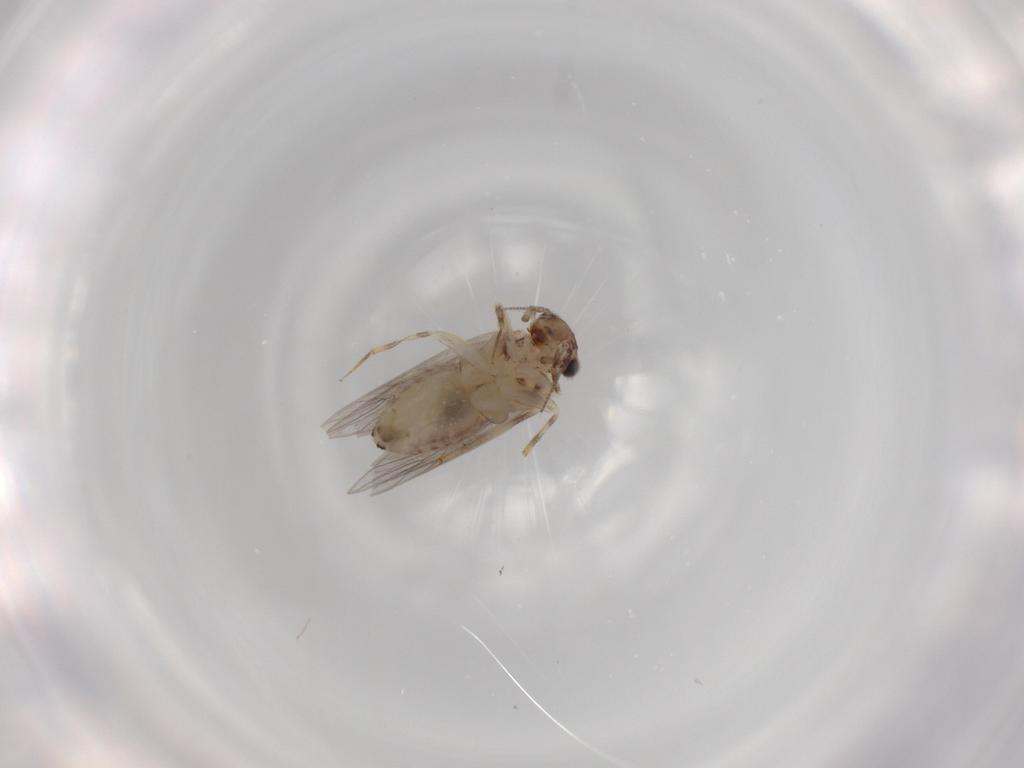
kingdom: Animalia
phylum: Arthropoda
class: Insecta
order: Psocodea
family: Lepidopsocidae
